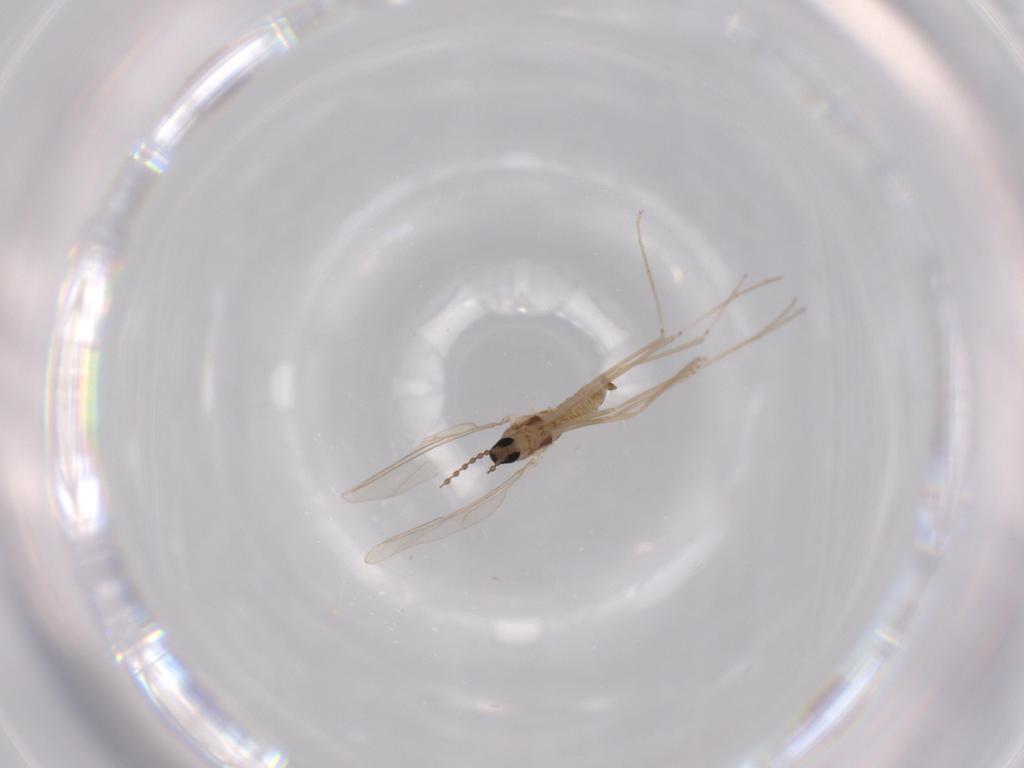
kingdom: Animalia
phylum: Arthropoda
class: Insecta
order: Diptera
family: Cecidomyiidae
